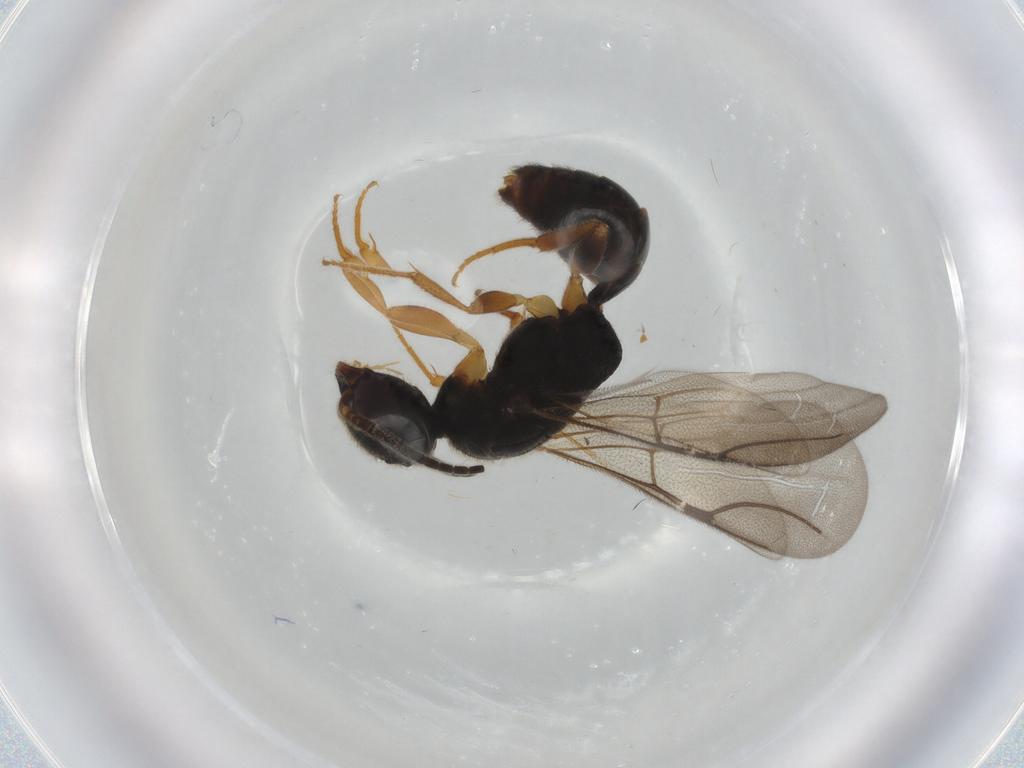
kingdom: Animalia
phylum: Arthropoda
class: Insecta
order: Hymenoptera
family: Bethylidae
